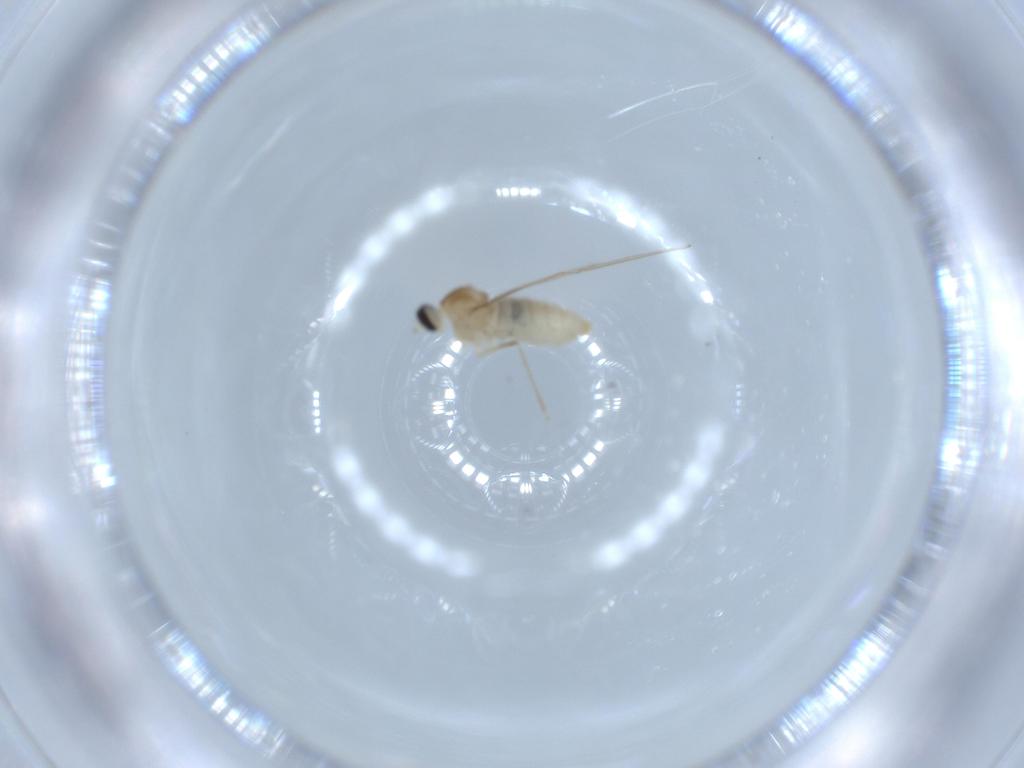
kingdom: Animalia
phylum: Arthropoda
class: Insecta
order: Diptera
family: Cecidomyiidae
